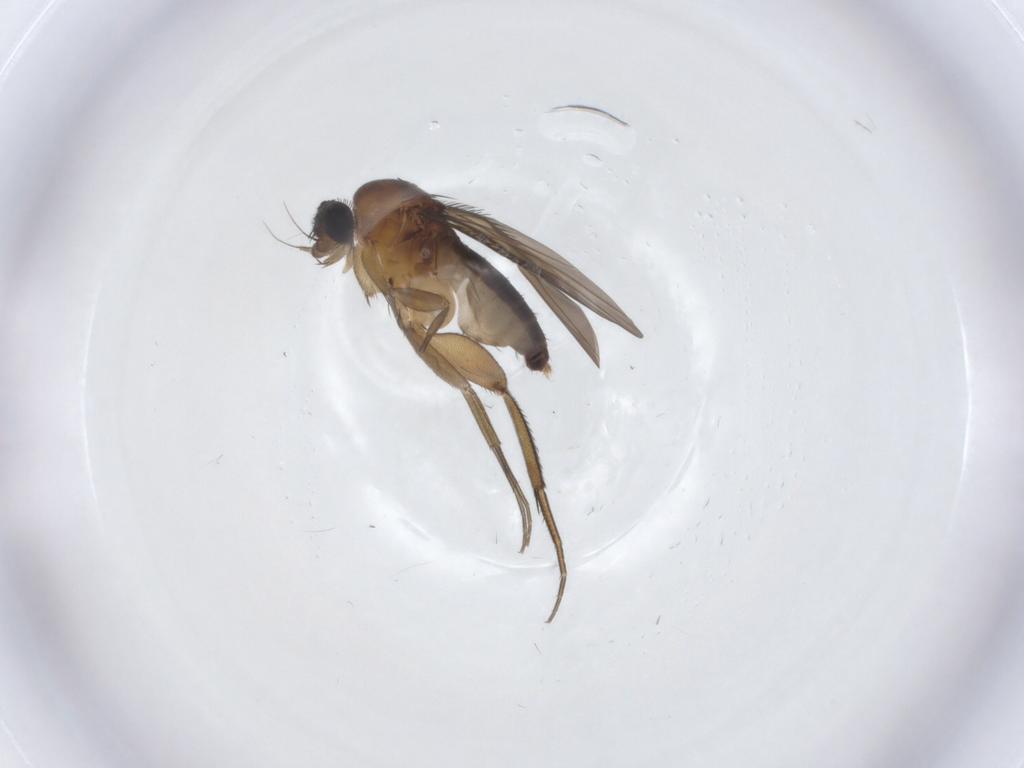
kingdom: Animalia
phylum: Arthropoda
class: Insecta
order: Diptera
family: Phoridae
